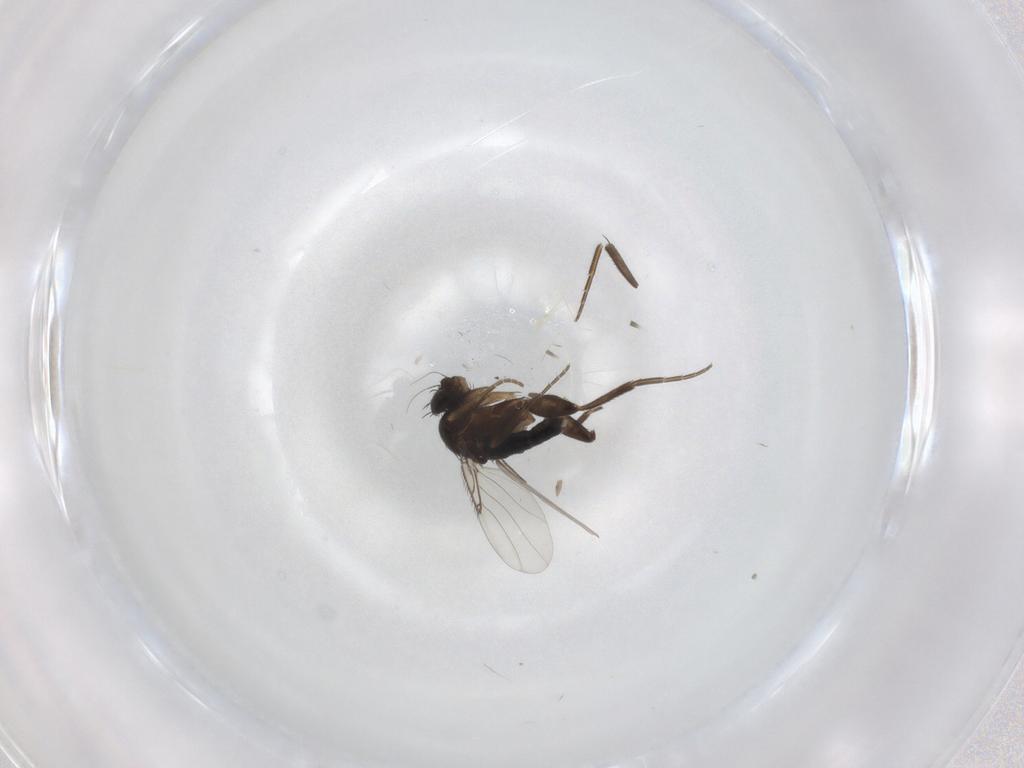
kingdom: Animalia
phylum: Arthropoda
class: Insecta
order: Diptera
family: Phoridae
